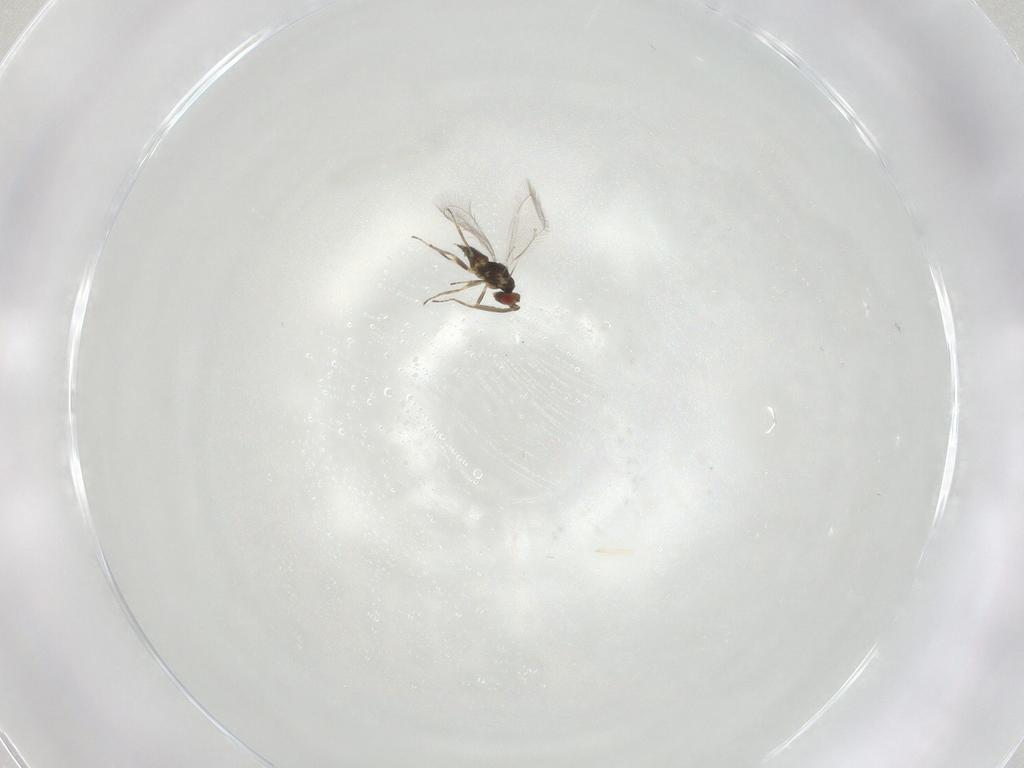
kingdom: Animalia
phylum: Arthropoda
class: Insecta
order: Hymenoptera
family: Eulophidae
